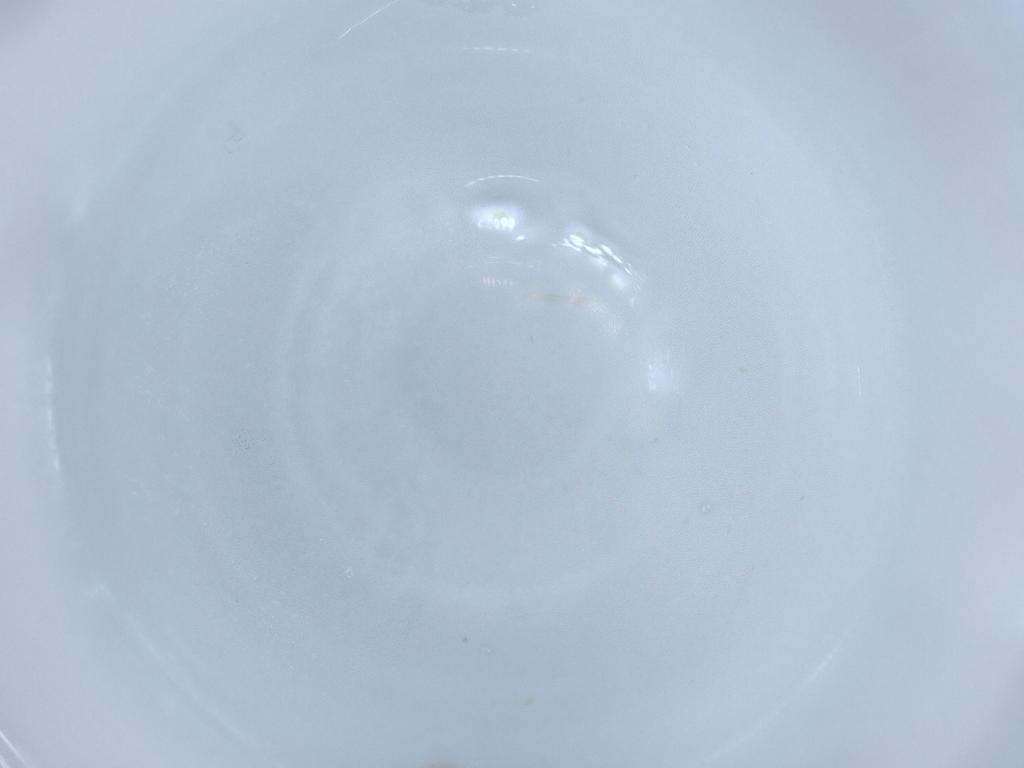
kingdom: Animalia
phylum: Arthropoda
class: Insecta
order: Diptera
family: Psychodidae
